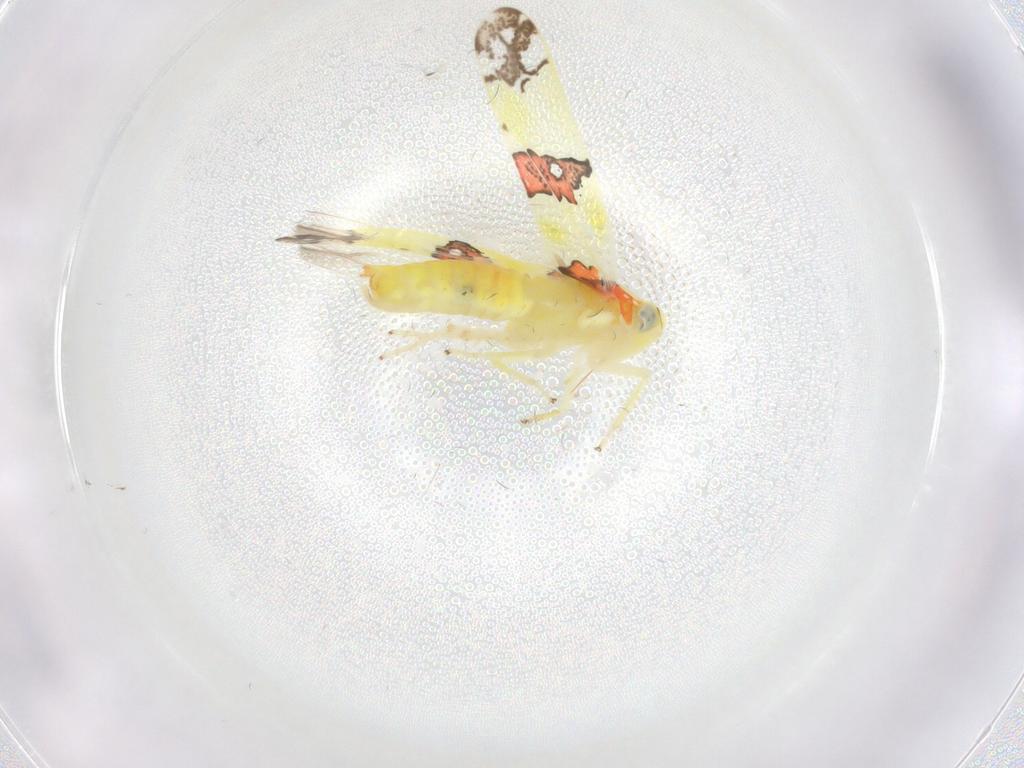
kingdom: Animalia
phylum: Arthropoda
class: Insecta
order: Hemiptera
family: Cicadellidae
